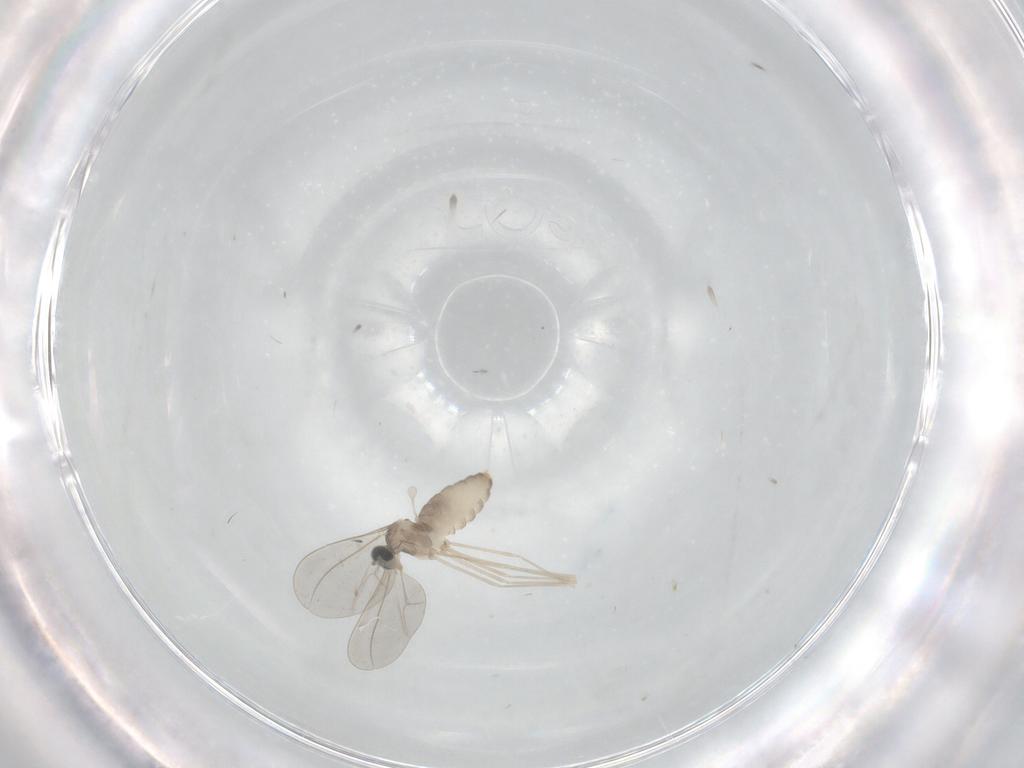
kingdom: Animalia
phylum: Arthropoda
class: Insecta
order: Diptera
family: Cecidomyiidae
